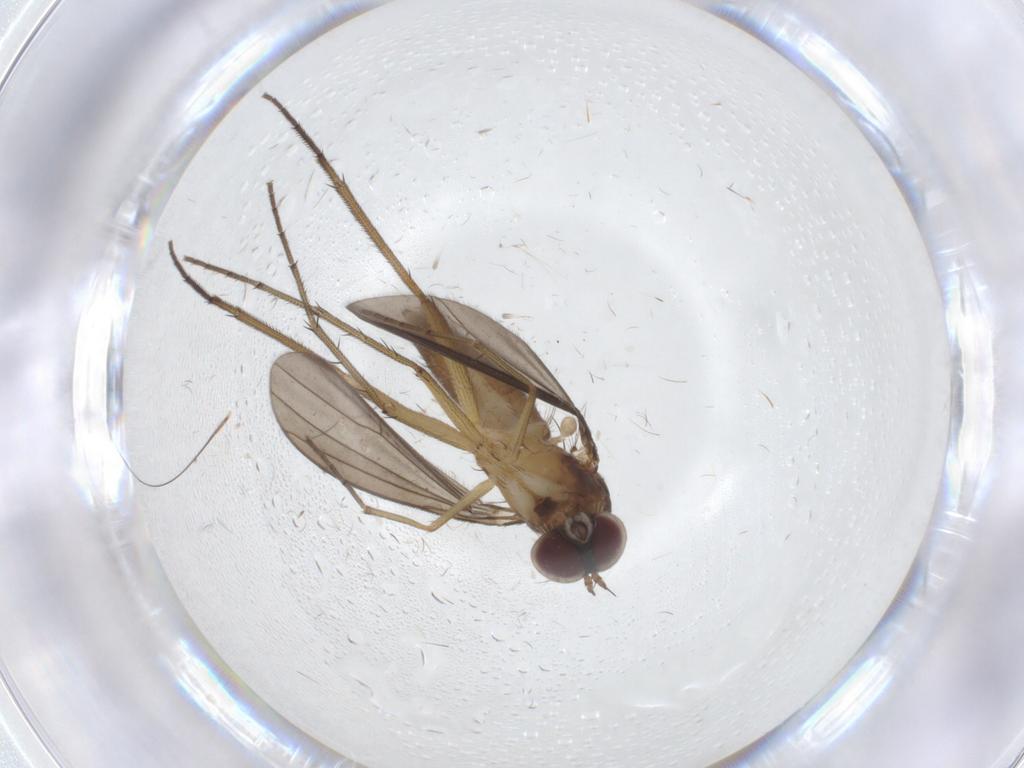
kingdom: Animalia
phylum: Arthropoda
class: Insecta
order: Diptera
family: Dolichopodidae
